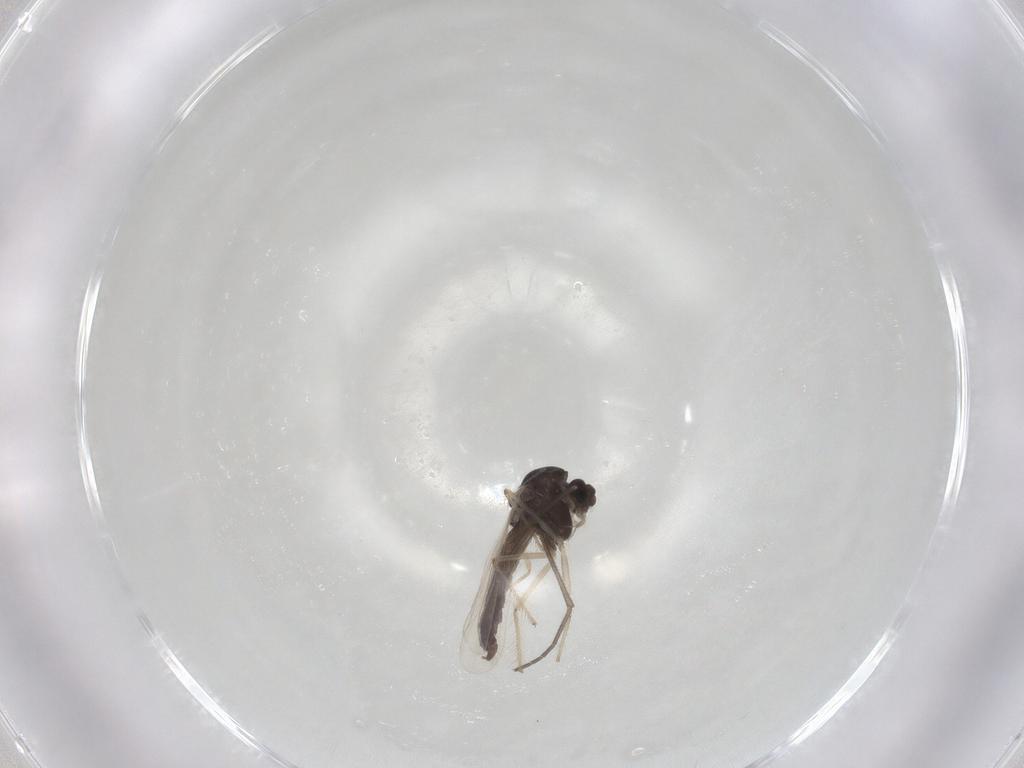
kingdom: Animalia
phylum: Arthropoda
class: Insecta
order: Diptera
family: Chironomidae
